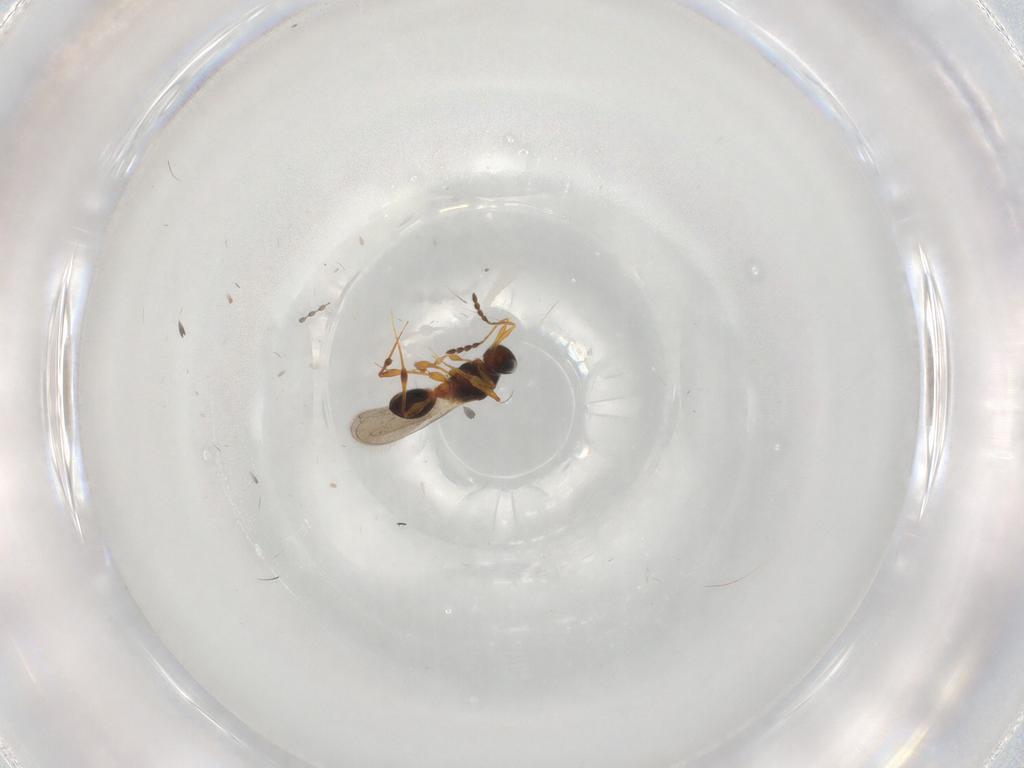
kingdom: Animalia
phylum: Arthropoda
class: Insecta
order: Hymenoptera
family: Platygastridae
